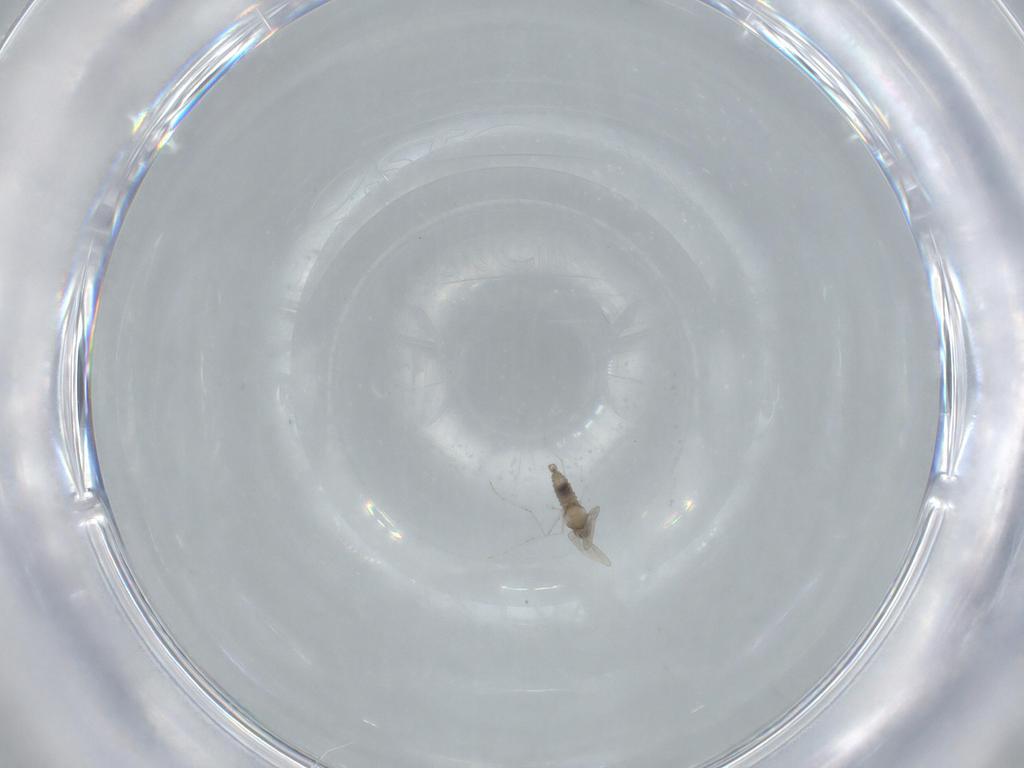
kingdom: Animalia
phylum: Arthropoda
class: Insecta
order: Diptera
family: Cecidomyiidae
